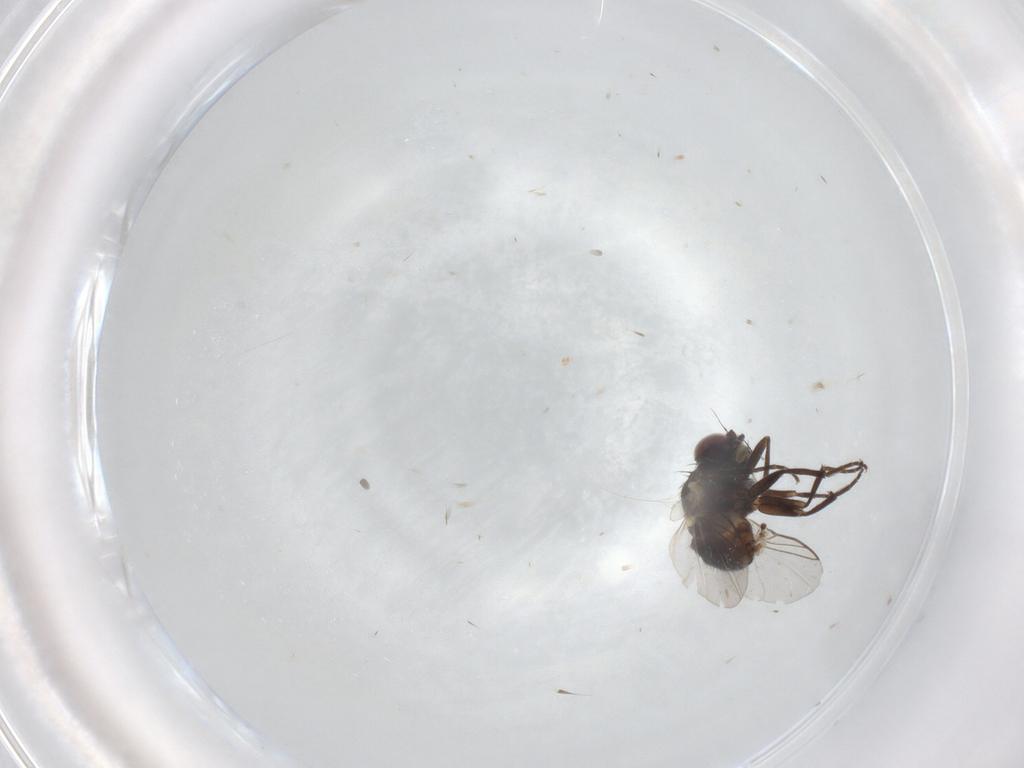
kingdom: Animalia
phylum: Arthropoda
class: Insecta
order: Diptera
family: Mycetophilidae
